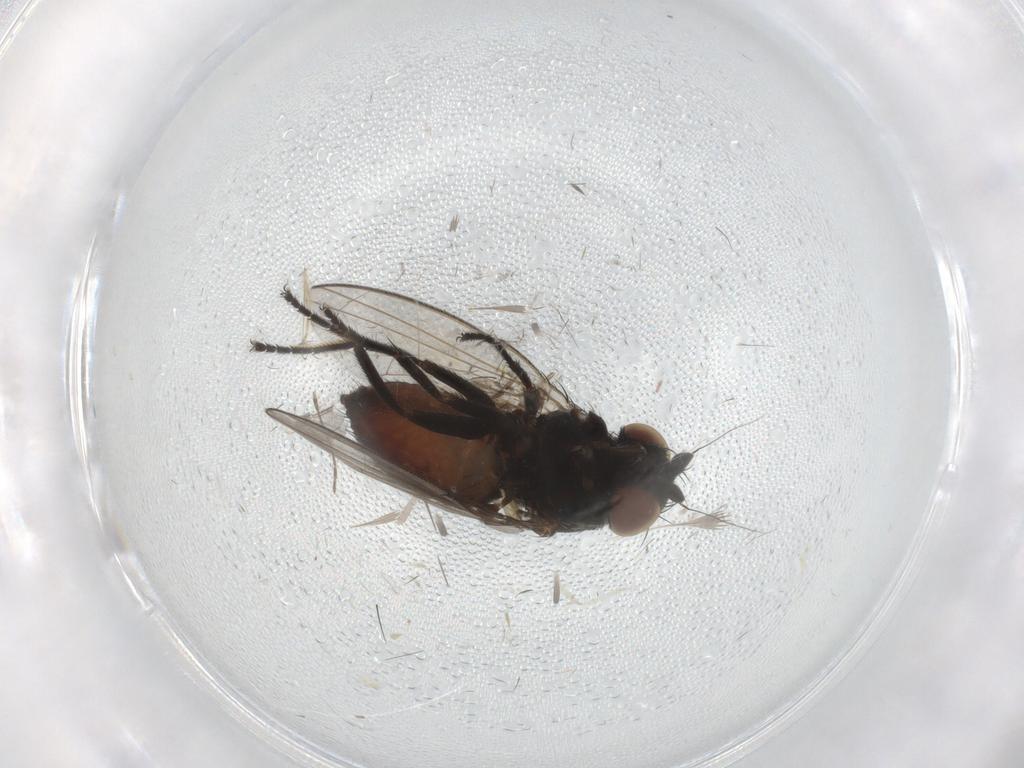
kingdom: Animalia
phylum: Arthropoda
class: Insecta
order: Diptera
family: Milichiidae
